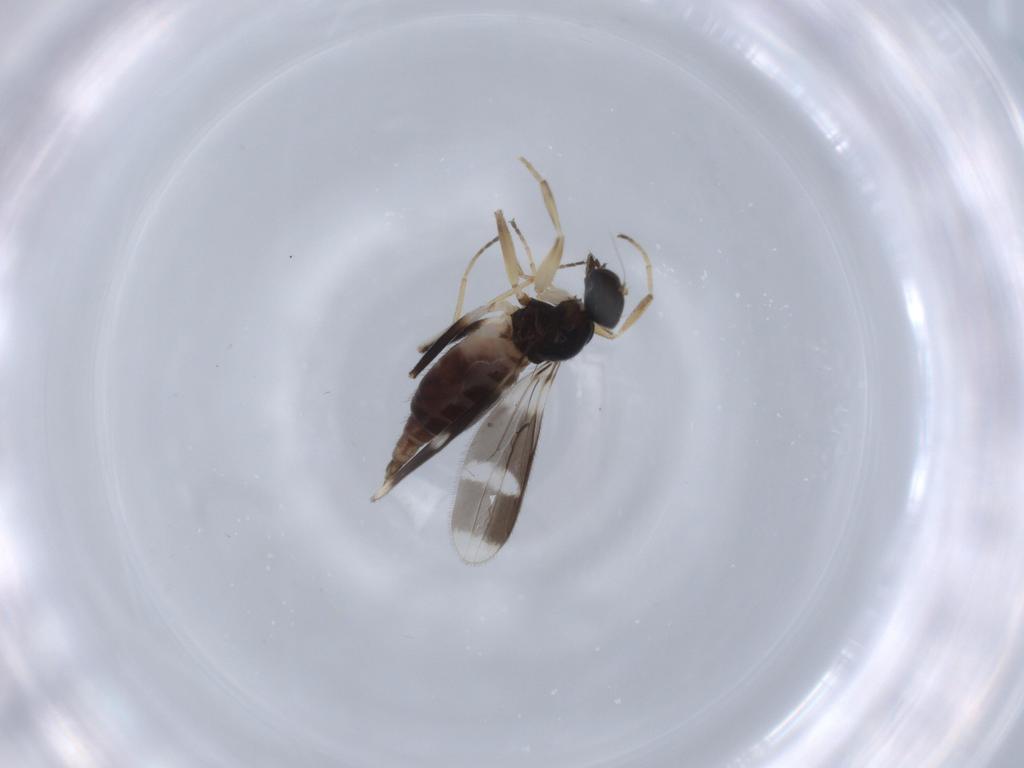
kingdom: Animalia
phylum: Arthropoda
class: Insecta
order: Diptera
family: Hybotidae
